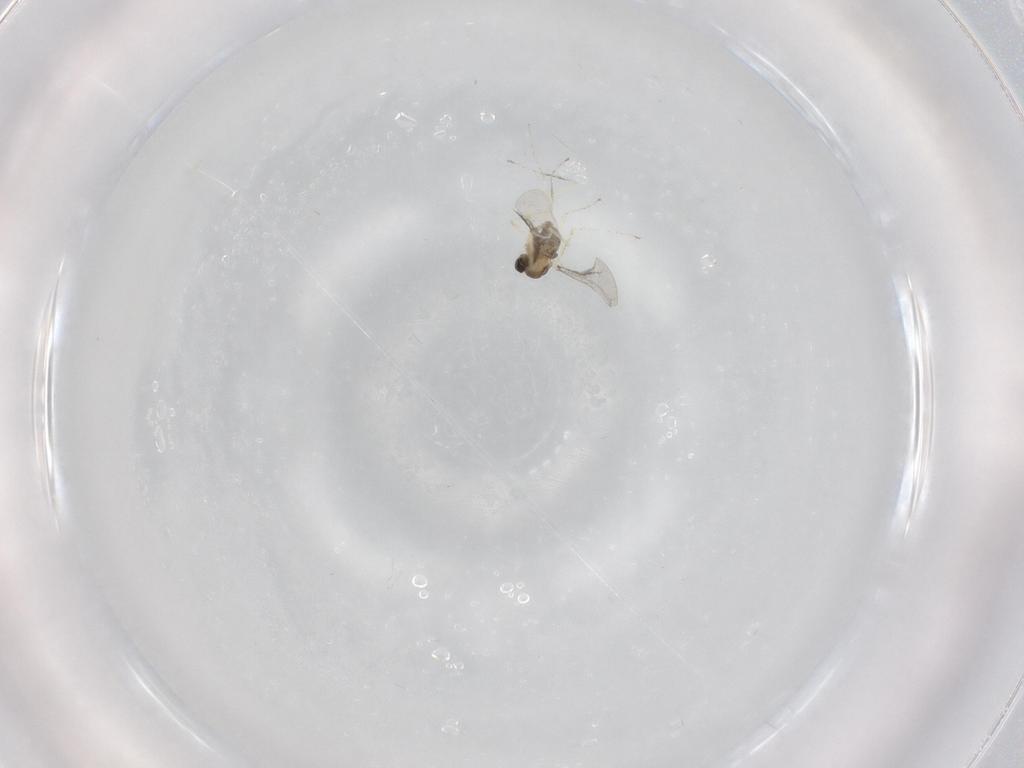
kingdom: Animalia
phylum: Arthropoda
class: Insecta
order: Diptera
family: Cecidomyiidae
